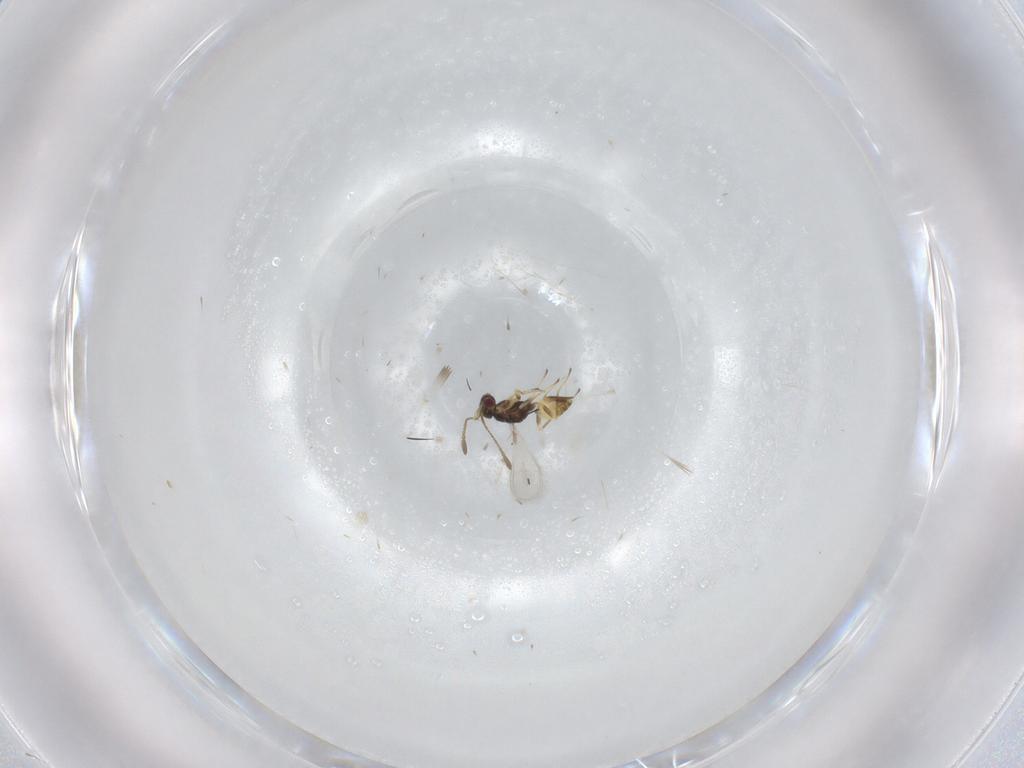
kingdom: Animalia
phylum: Arthropoda
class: Insecta
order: Hymenoptera
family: Mymaridae
